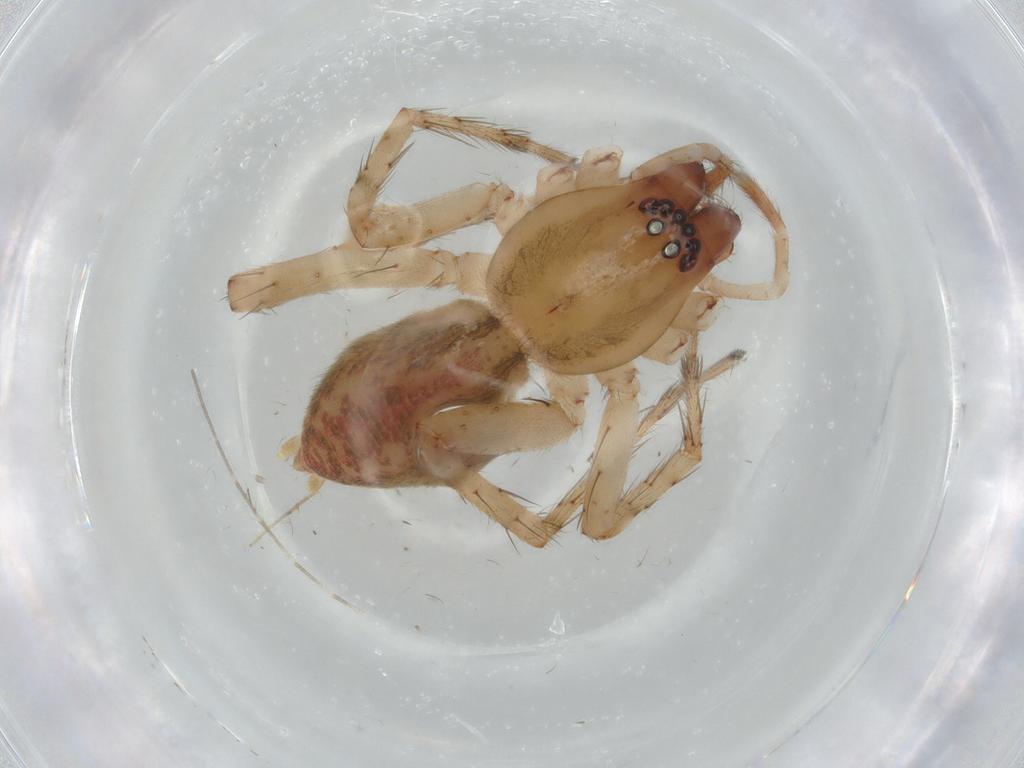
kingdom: Animalia
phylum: Arthropoda
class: Arachnida
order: Araneae
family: Anyphaenidae
